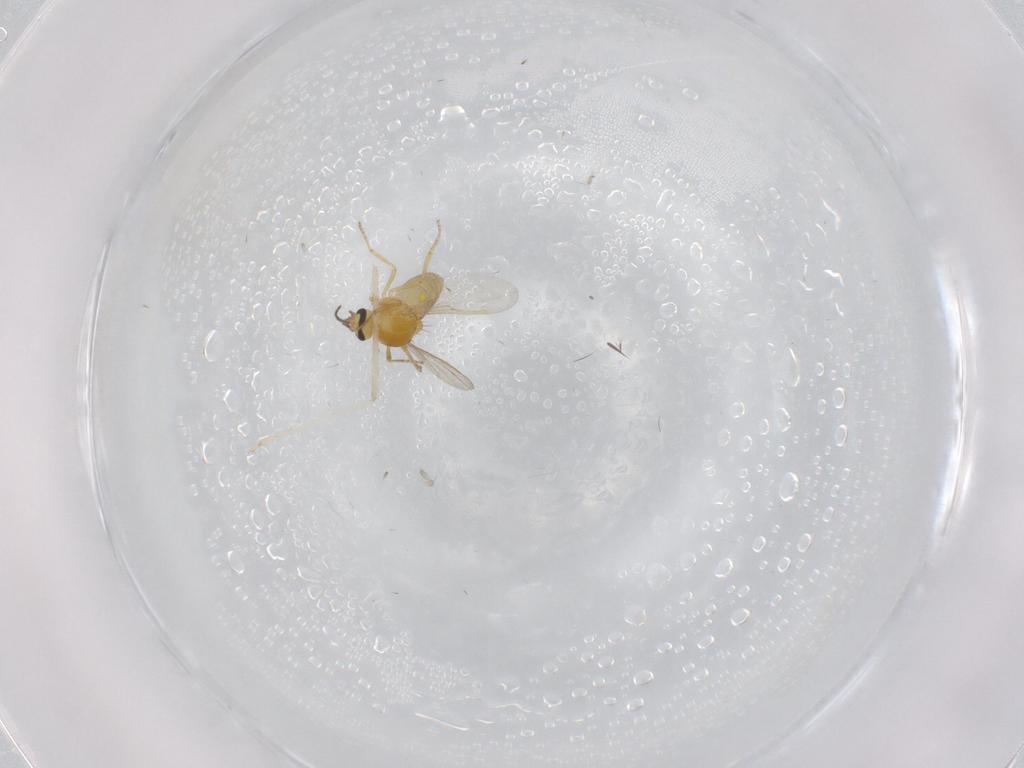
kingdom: Animalia
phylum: Arthropoda
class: Insecta
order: Diptera
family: Ceratopogonidae
